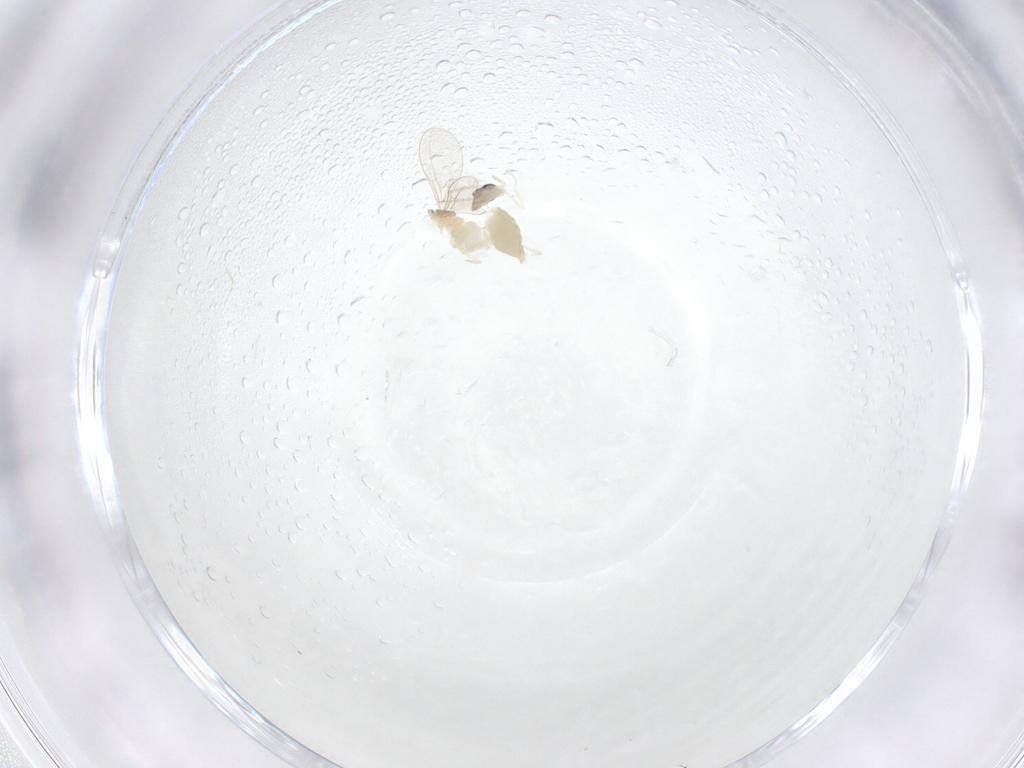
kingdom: Animalia
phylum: Arthropoda
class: Insecta
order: Diptera
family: Cecidomyiidae
